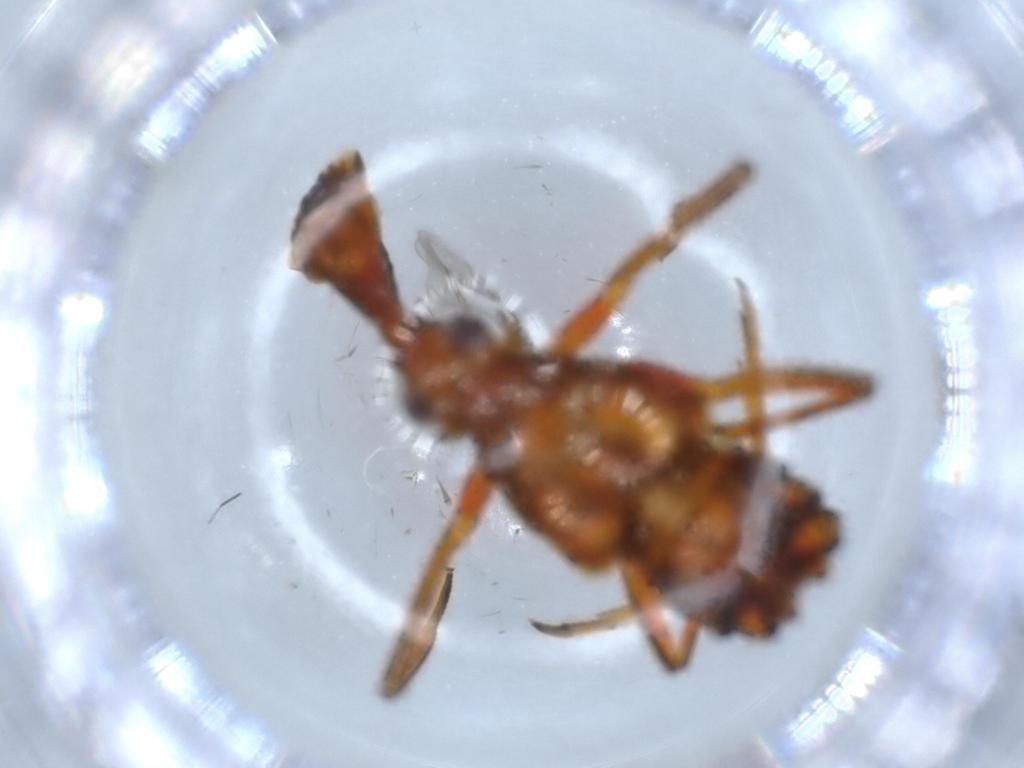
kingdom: Animalia
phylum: Arthropoda
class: Insecta
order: Hemiptera
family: Fulgoridae
